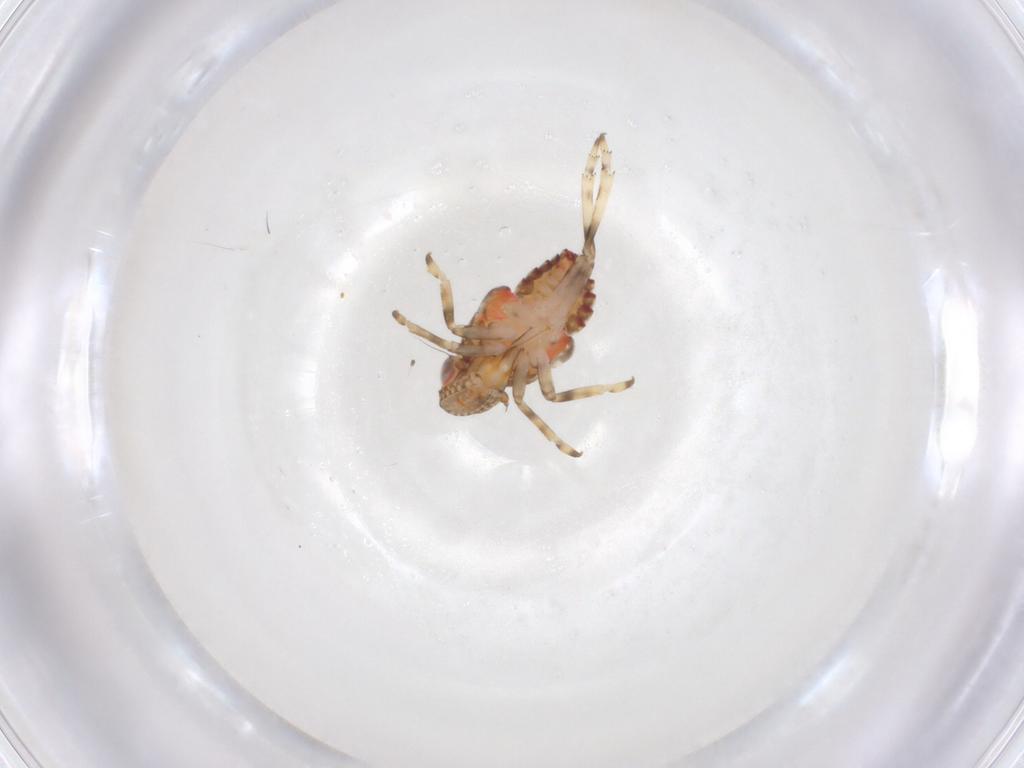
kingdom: Animalia
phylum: Arthropoda
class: Insecta
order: Hemiptera
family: Tropiduchidae
